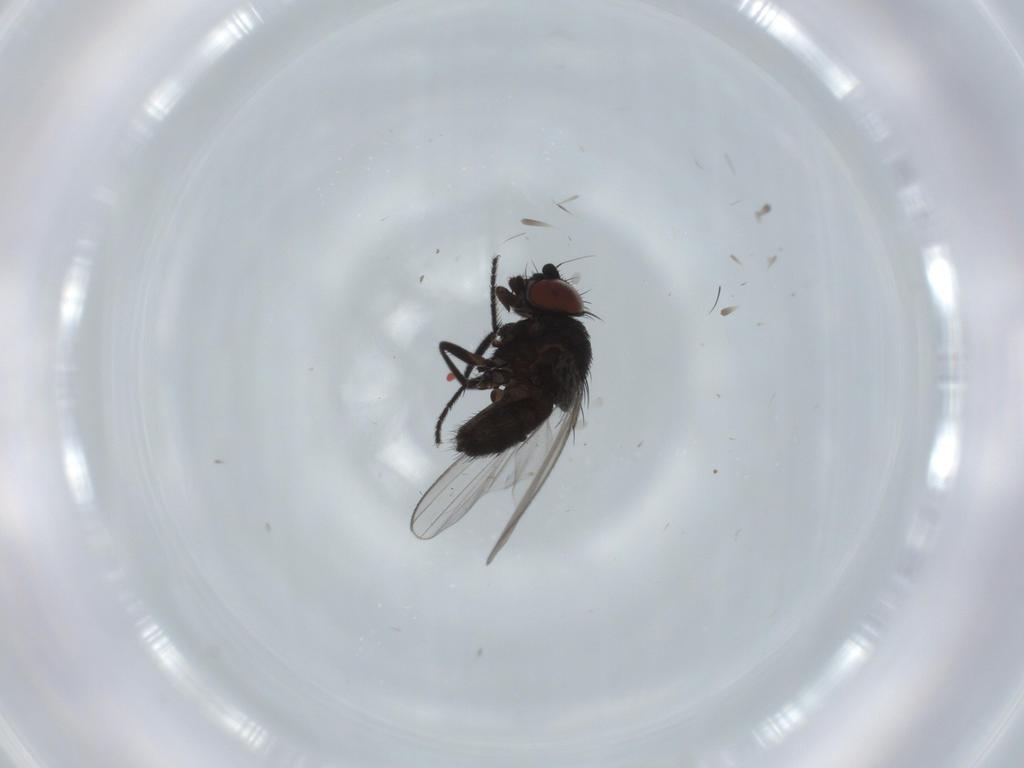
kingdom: Animalia
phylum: Arthropoda
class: Insecta
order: Diptera
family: Milichiidae
